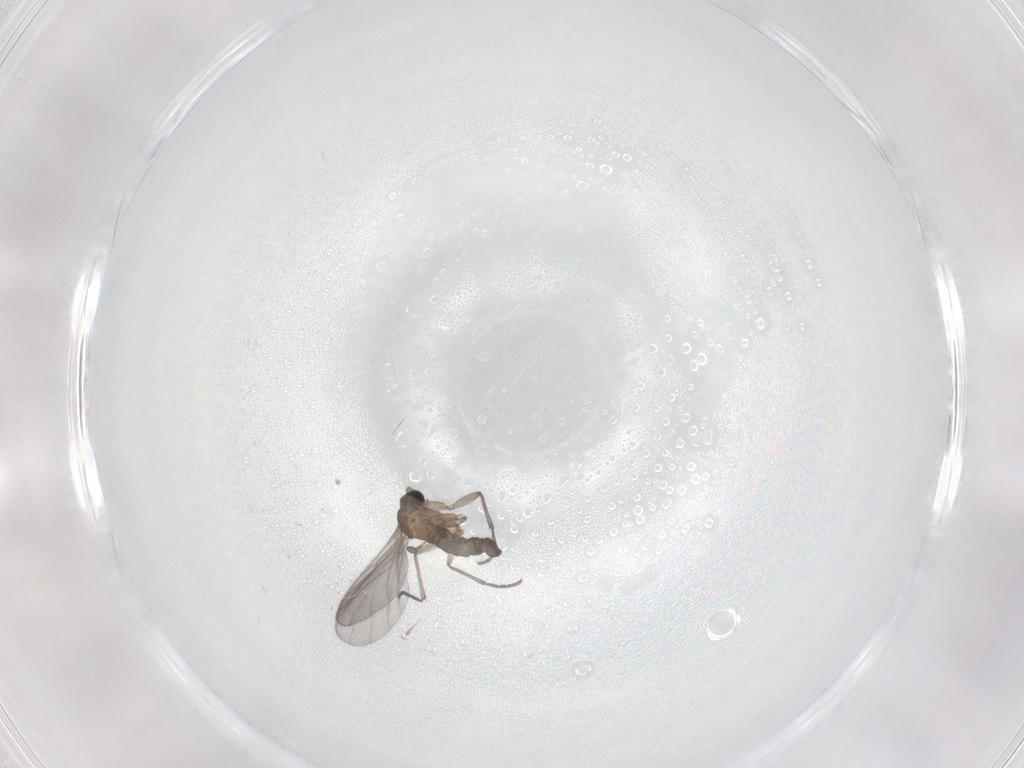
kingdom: Animalia
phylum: Arthropoda
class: Insecta
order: Diptera
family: Sciaridae
